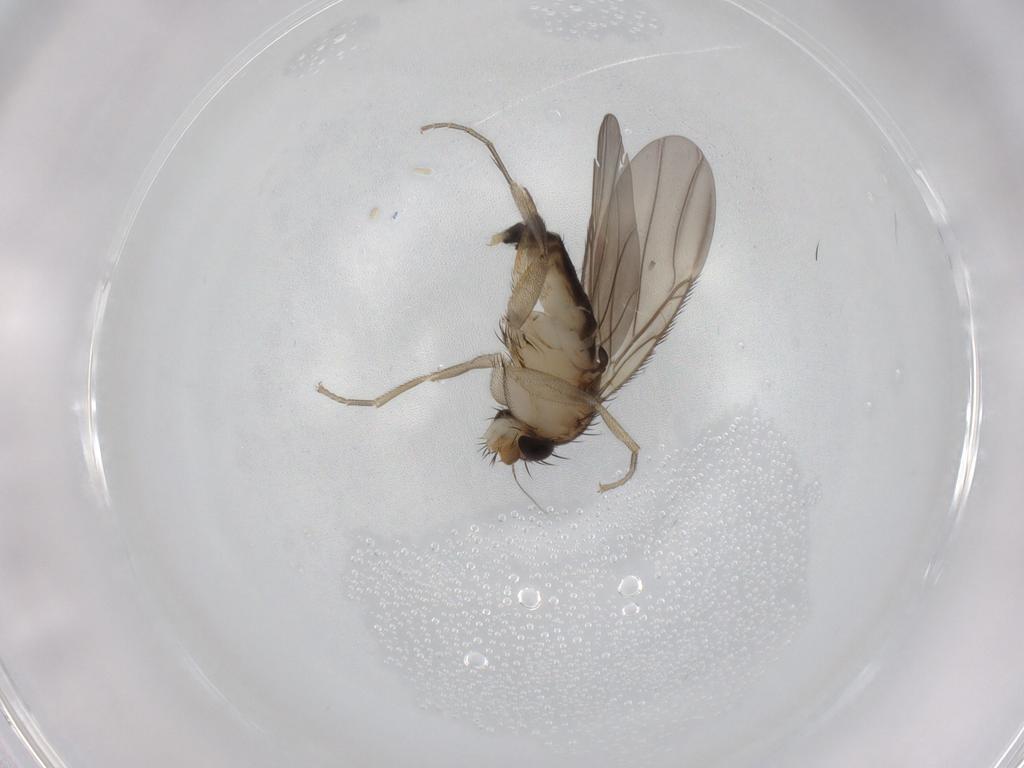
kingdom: Animalia
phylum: Arthropoda
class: Insecta
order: Diptera
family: Phoridae
